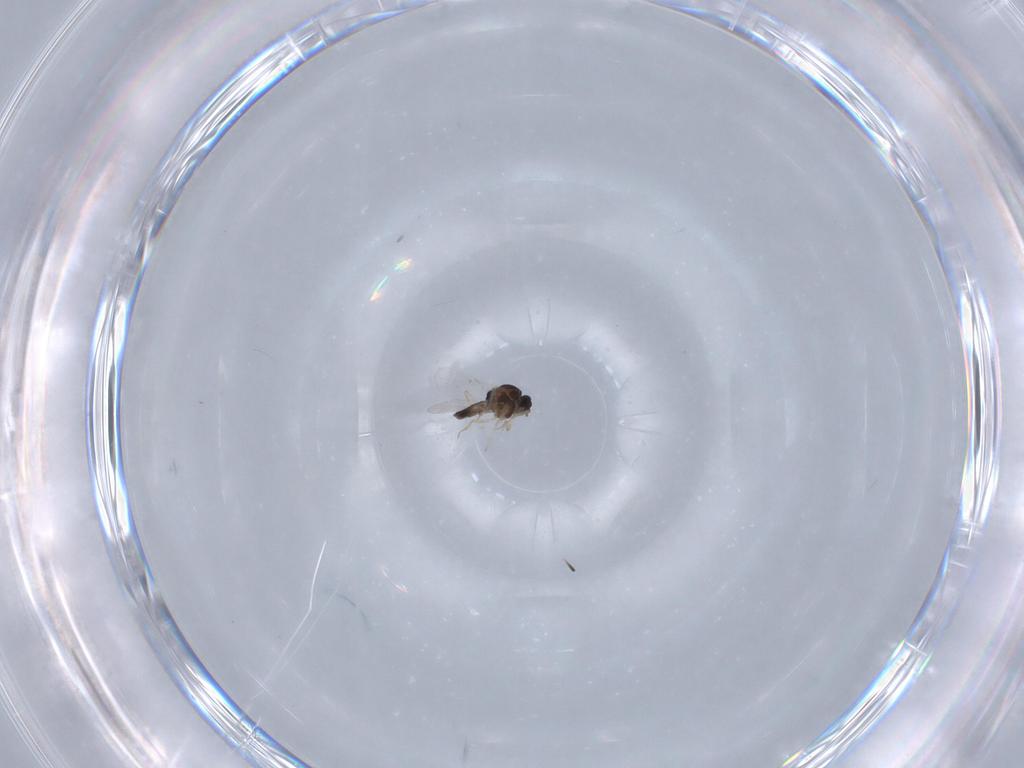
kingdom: Animalia
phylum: Arthropoda
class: Insecta
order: Diptera
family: Cecidomyiidae
